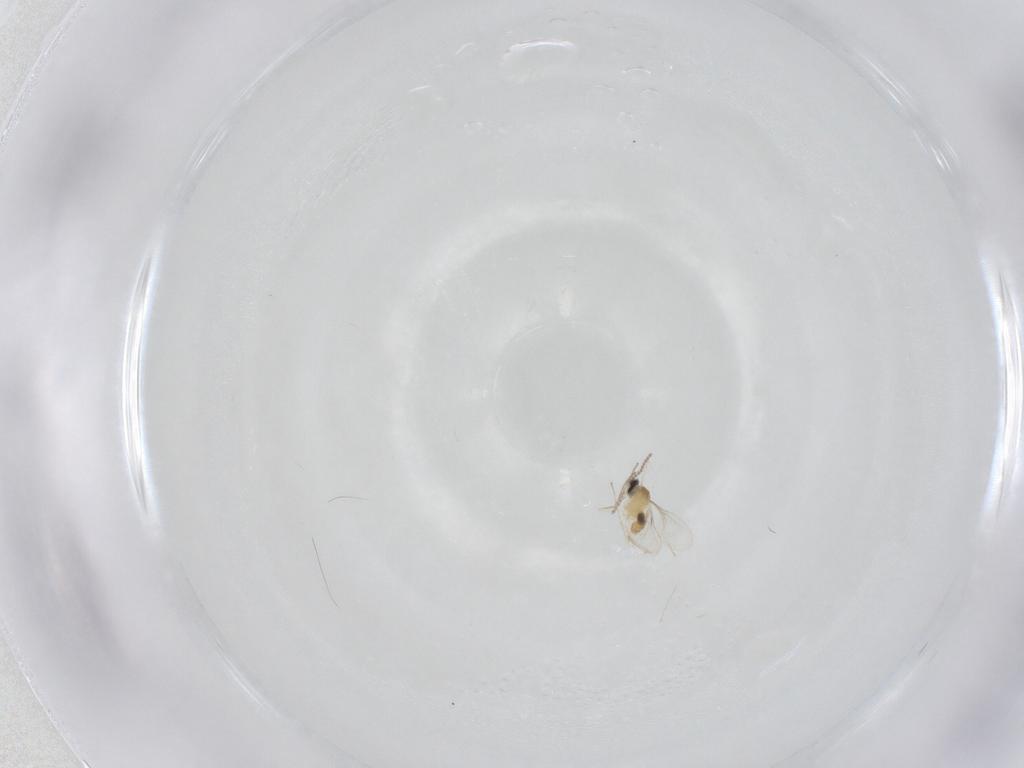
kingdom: Animalia
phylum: Arthropoda
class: Insecta
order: Diptera
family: Cecidomyiidae
